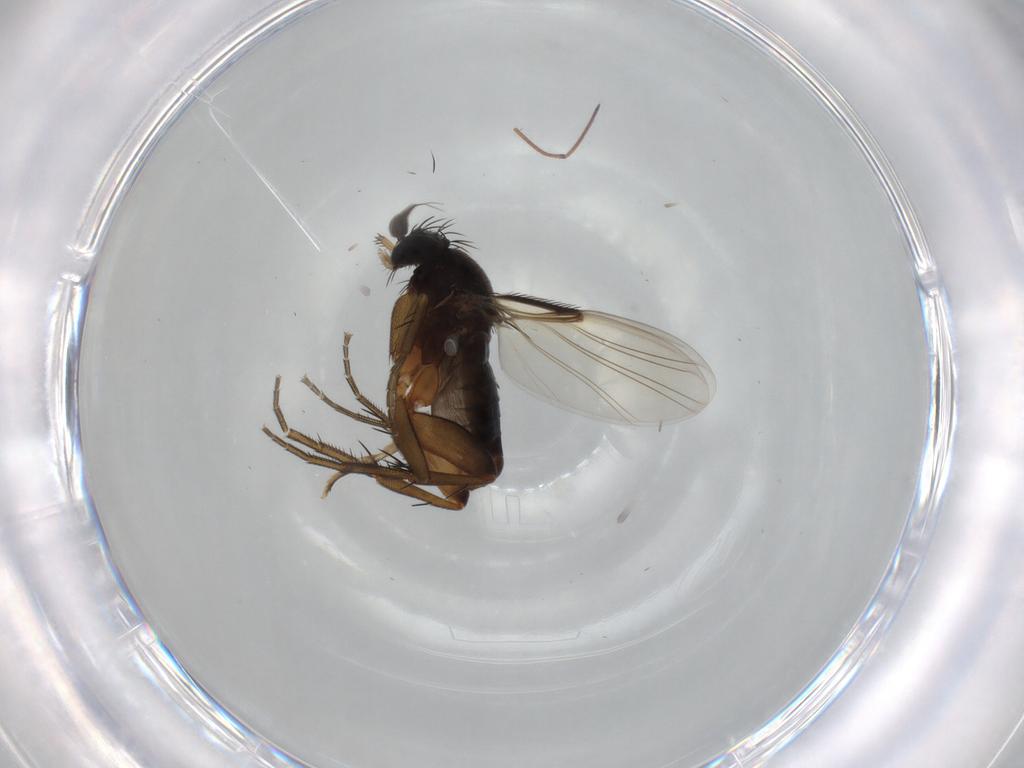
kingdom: Animalia
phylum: Arthropoda
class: Insecta
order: Diptera
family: Phoridae
